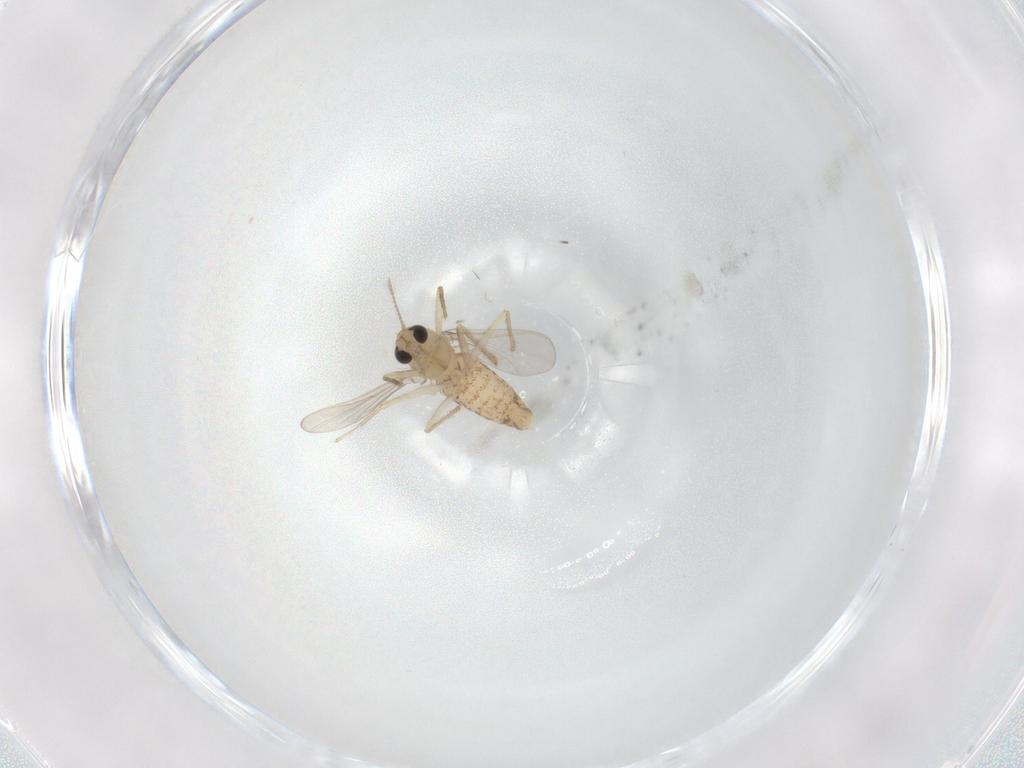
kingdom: Animalia
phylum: Arthropoda
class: Insecta
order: Diptera
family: Chironomidae
